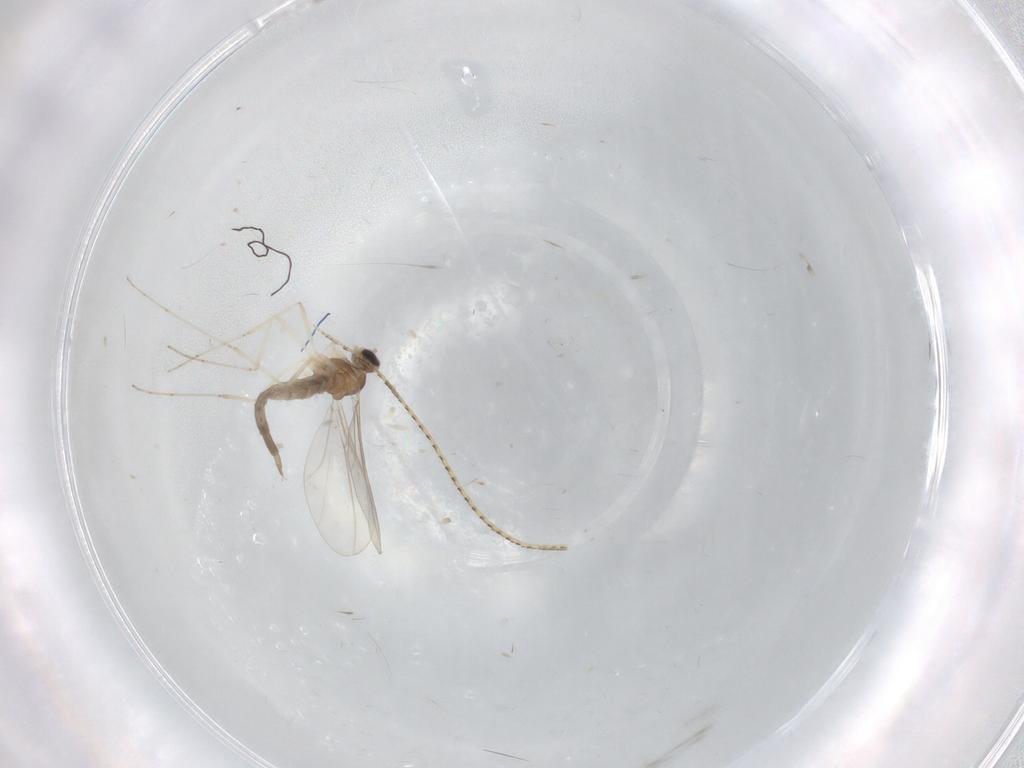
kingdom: Animalia
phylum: Arthropoda
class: Insecta
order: Diptera
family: Cecidomyiidae
